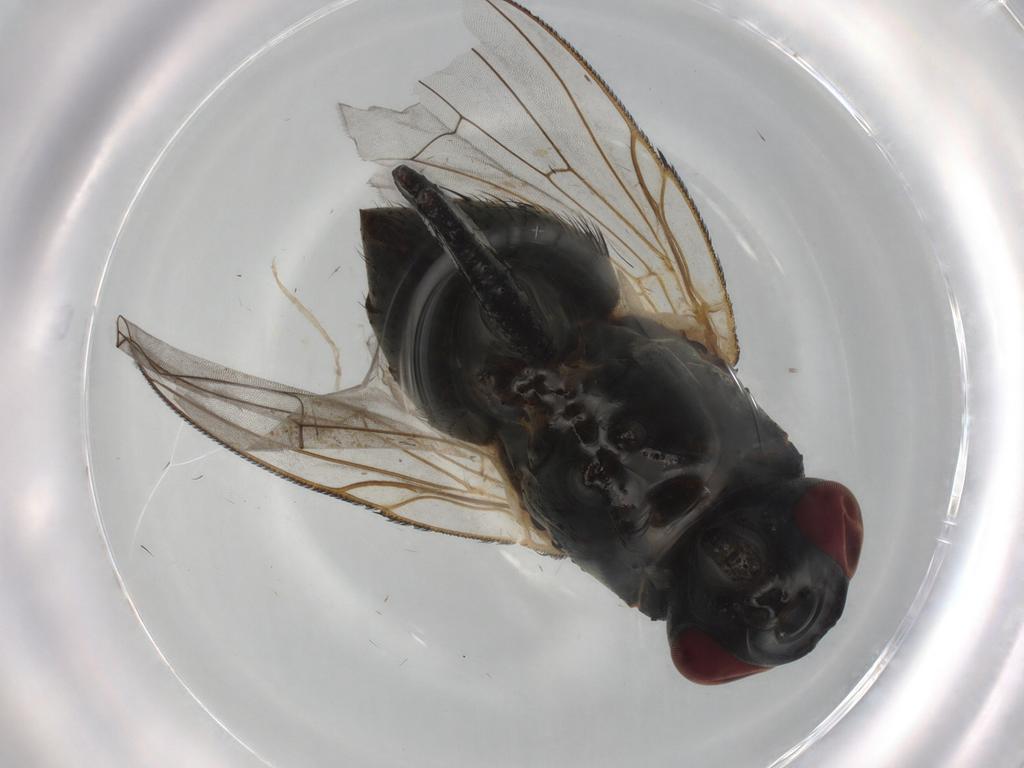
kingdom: Animalia
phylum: Arthropoda
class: Insecta
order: Diptera
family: Ceratopogonidae
